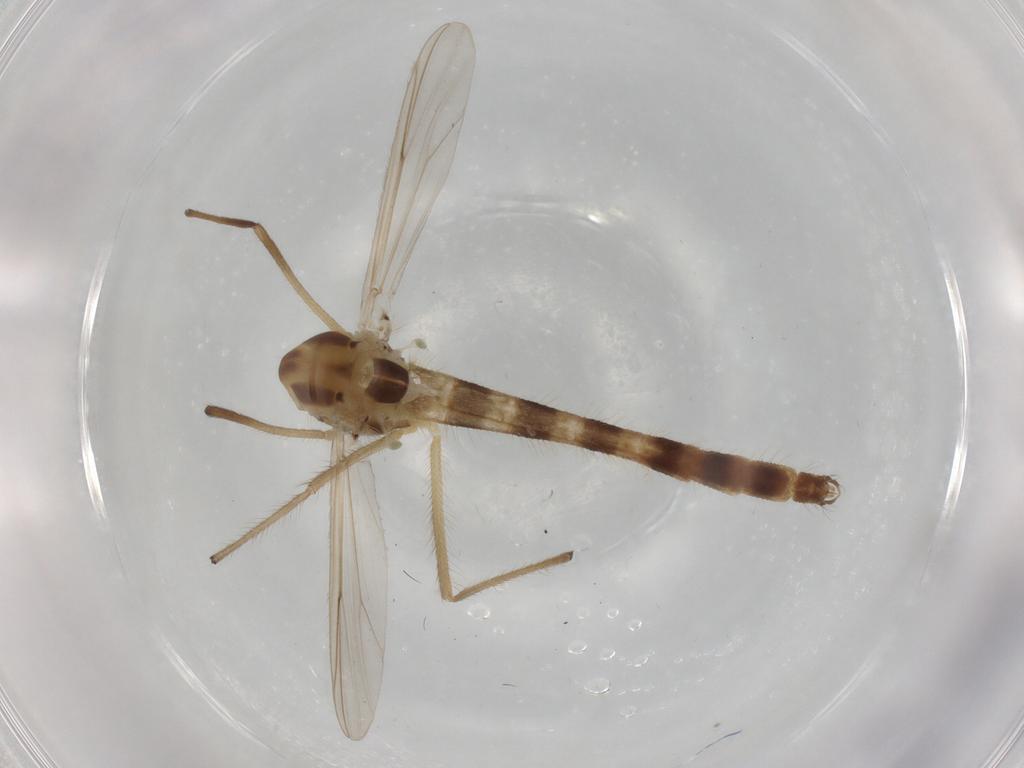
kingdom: Animalia
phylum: Arthropoda
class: Insecta
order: Diptera
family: Chironomidae
